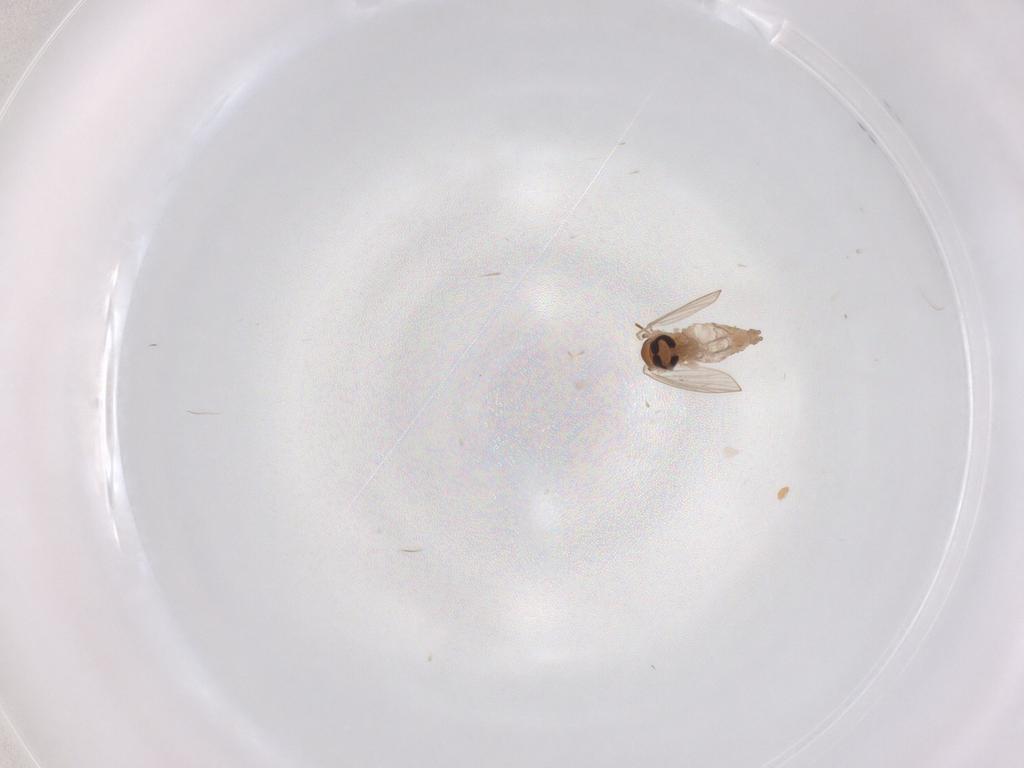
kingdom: Animalia
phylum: Arthropoda
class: Insecta
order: Diptera
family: Psychodidae
